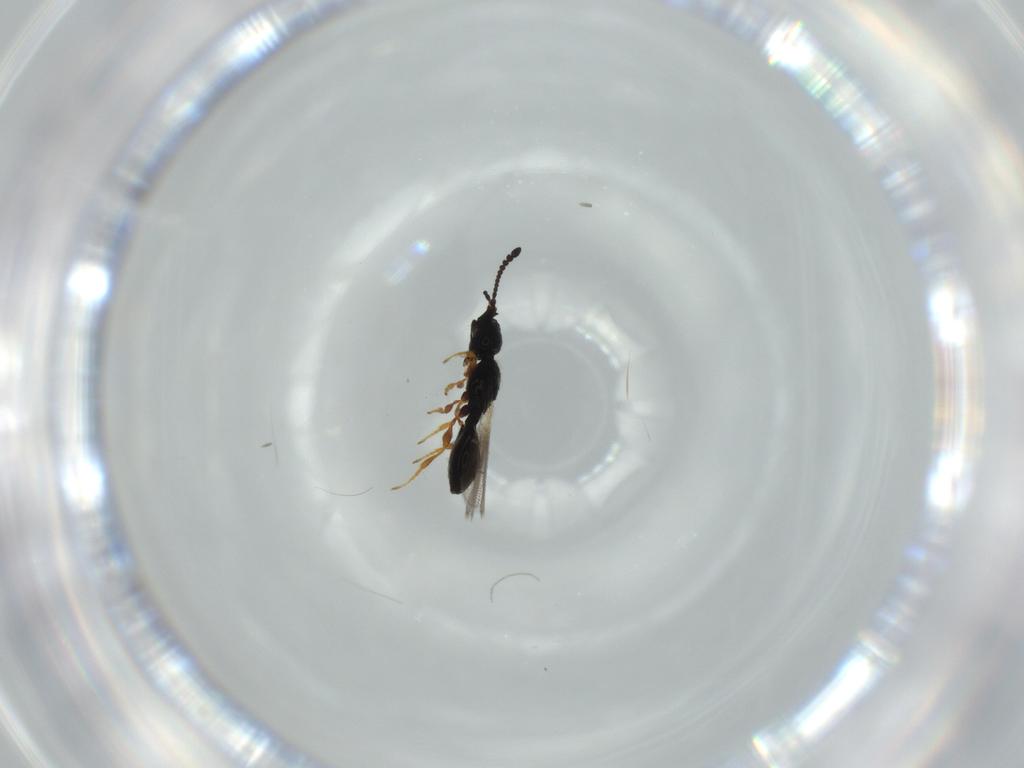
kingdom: Animalia
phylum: Arthropoda
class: Insecta
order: Hymenoptera
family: Diapriidae
